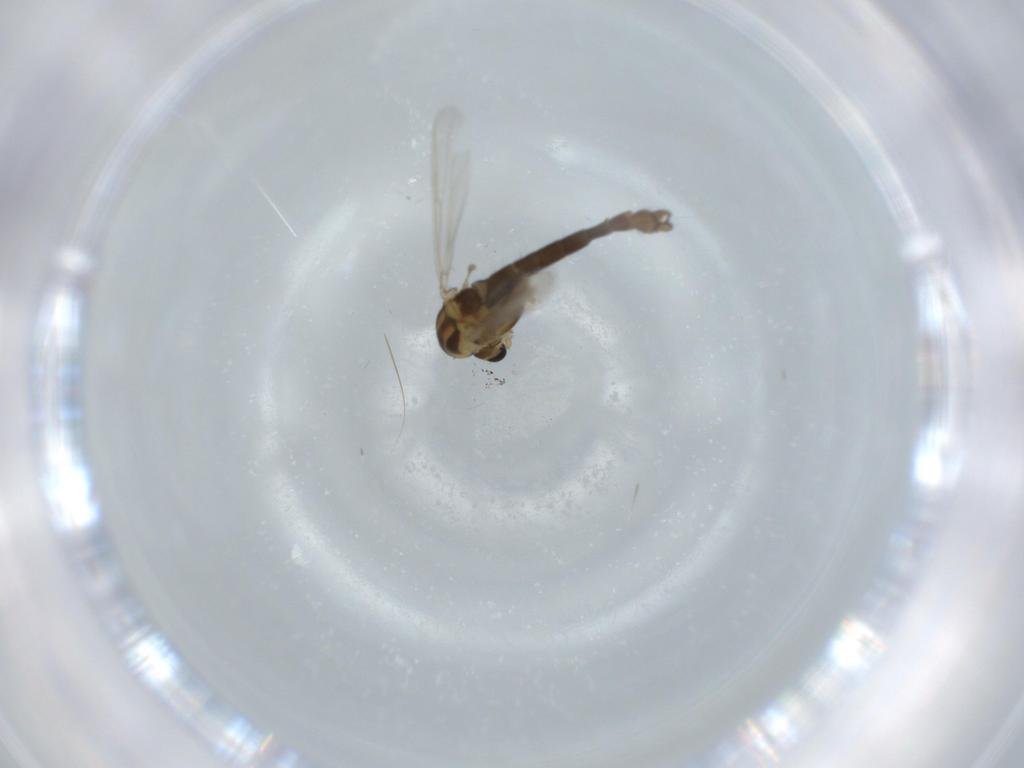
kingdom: Animalia
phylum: Arthropoda
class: Insecta
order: Diptera
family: Chironomidae
